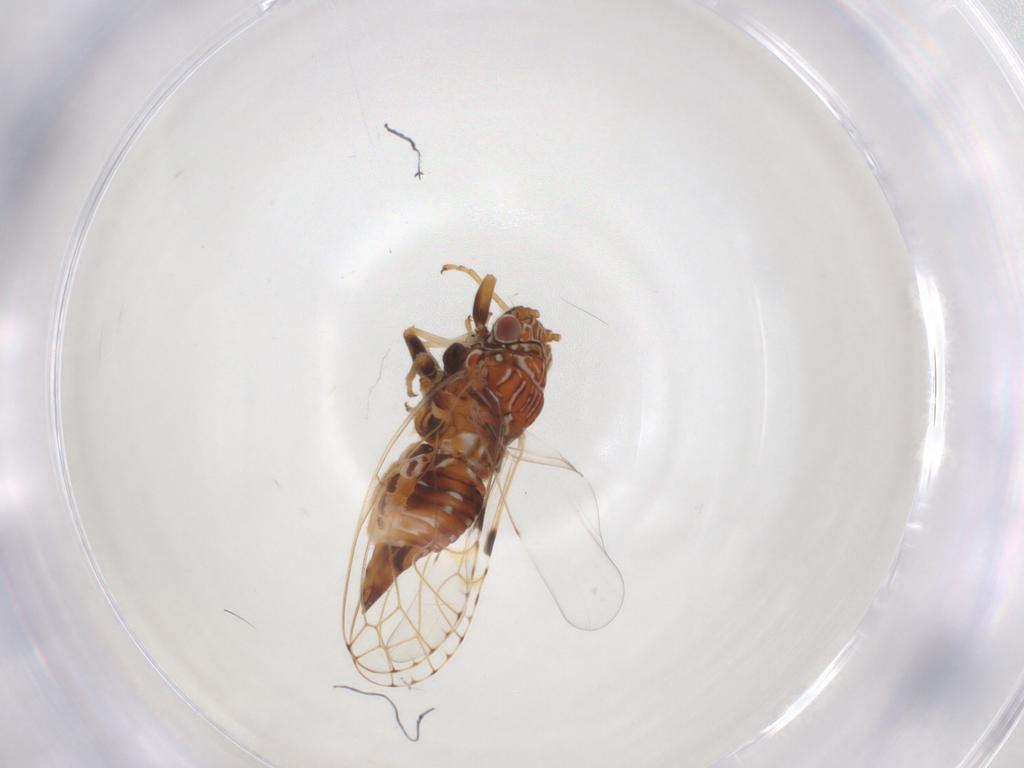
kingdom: Animalia
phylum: Arthropoda
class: Insecta
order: Hemiptera
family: Psylloidea_incertae_sedis
